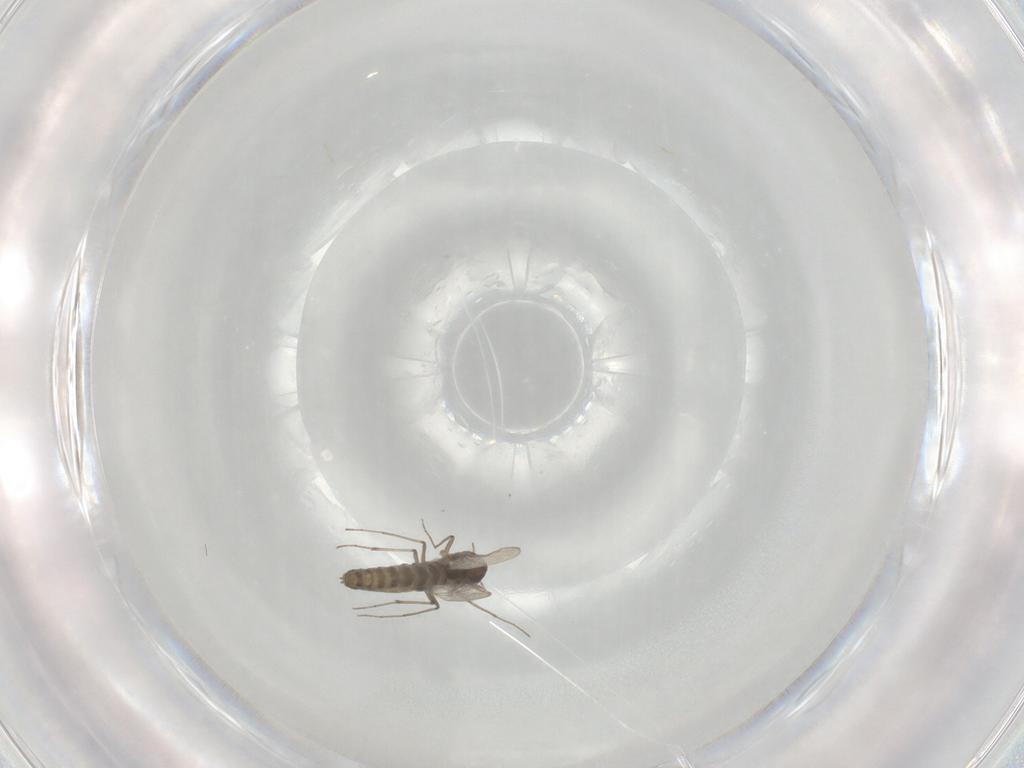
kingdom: Animalia
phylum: Arthropoda
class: Insecta
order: Diptera
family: Chironomidae
